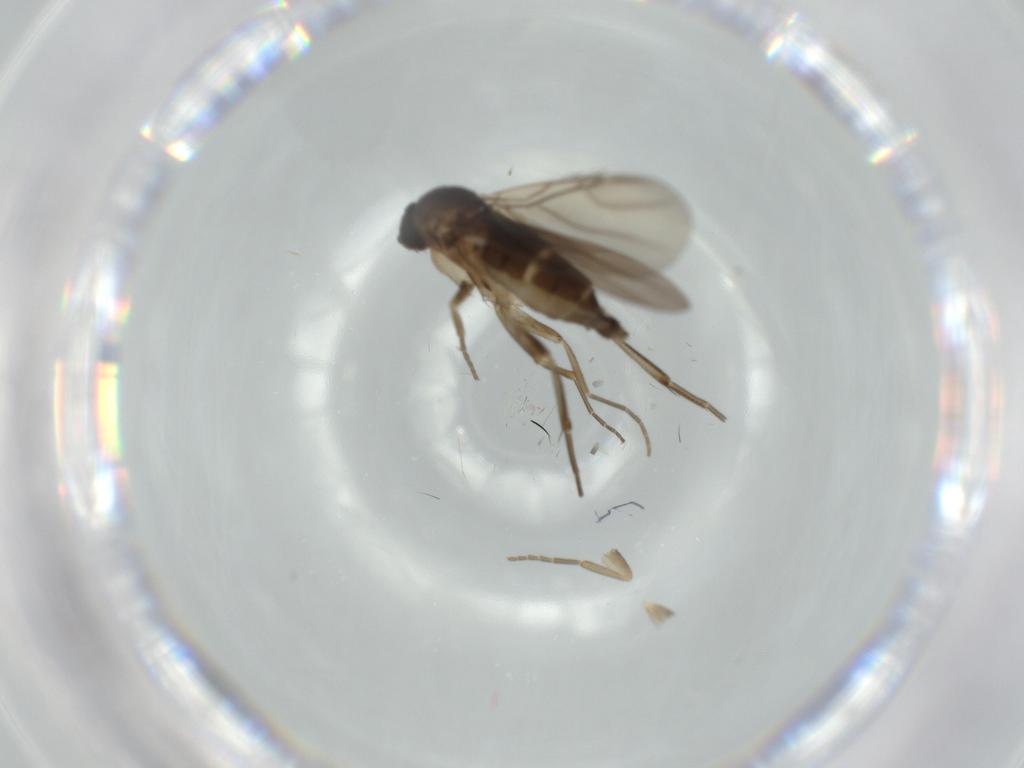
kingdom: Animalia
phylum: Arthropoda
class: Insecta
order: Diptera
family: Phoridae
